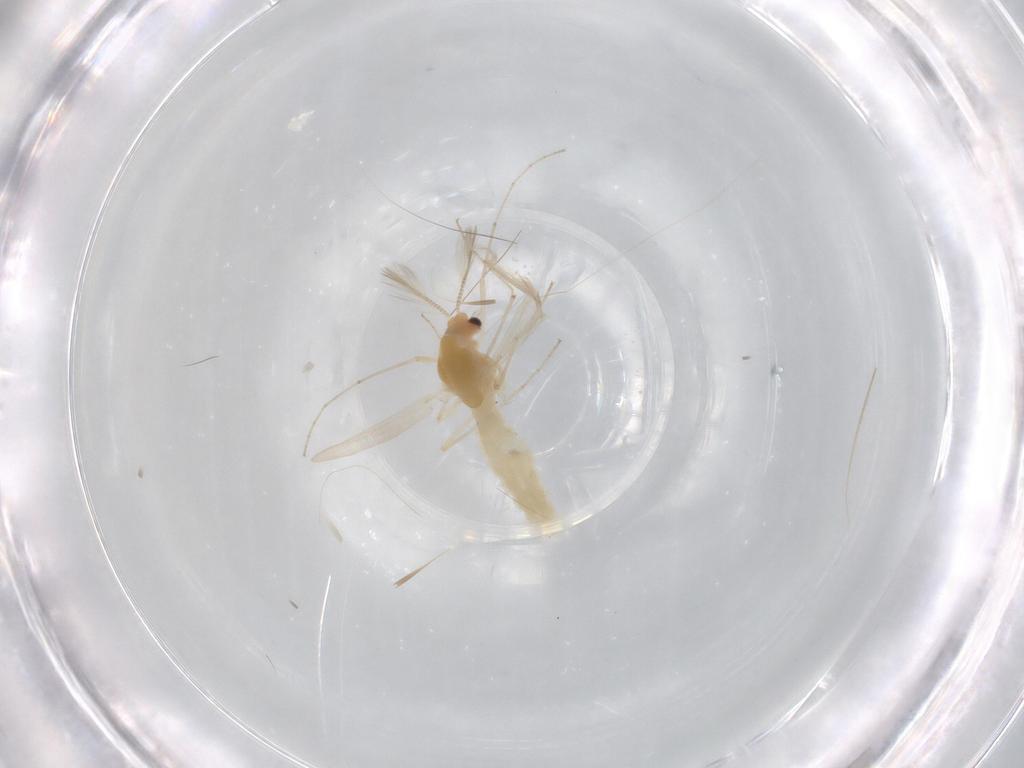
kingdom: Animalia
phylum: Arthropoda
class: Insecta
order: Diptera
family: Chironomidae
